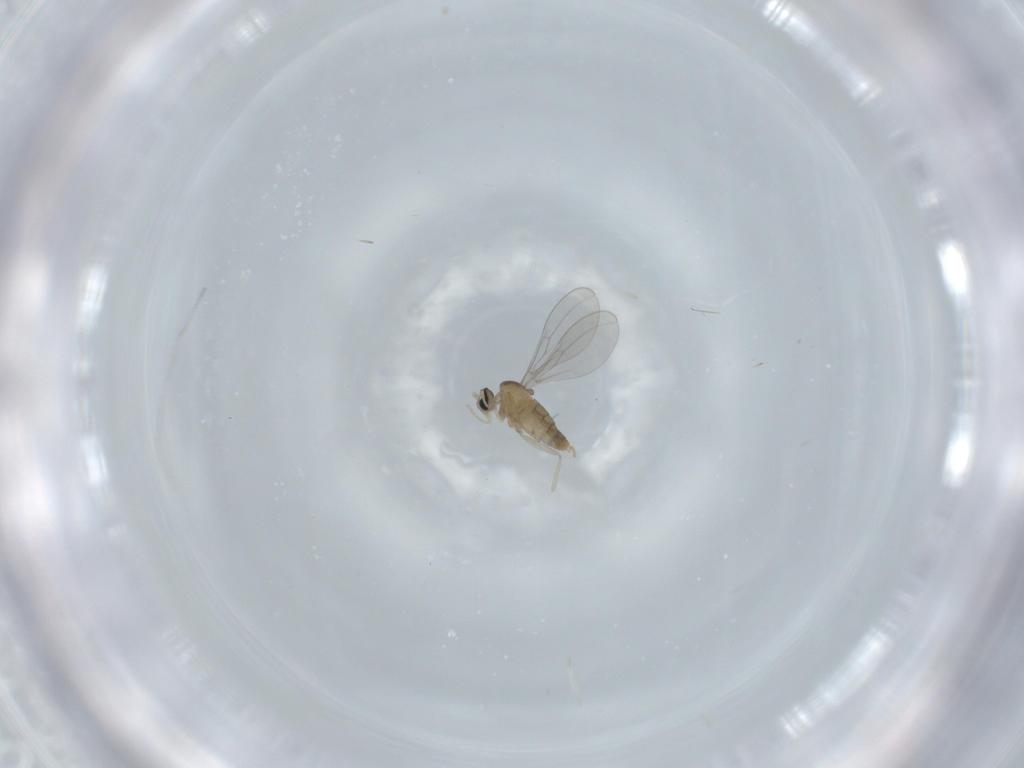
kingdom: Animalia
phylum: Arthropoda
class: Insecta
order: Diptera
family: Cecidomyiidae
